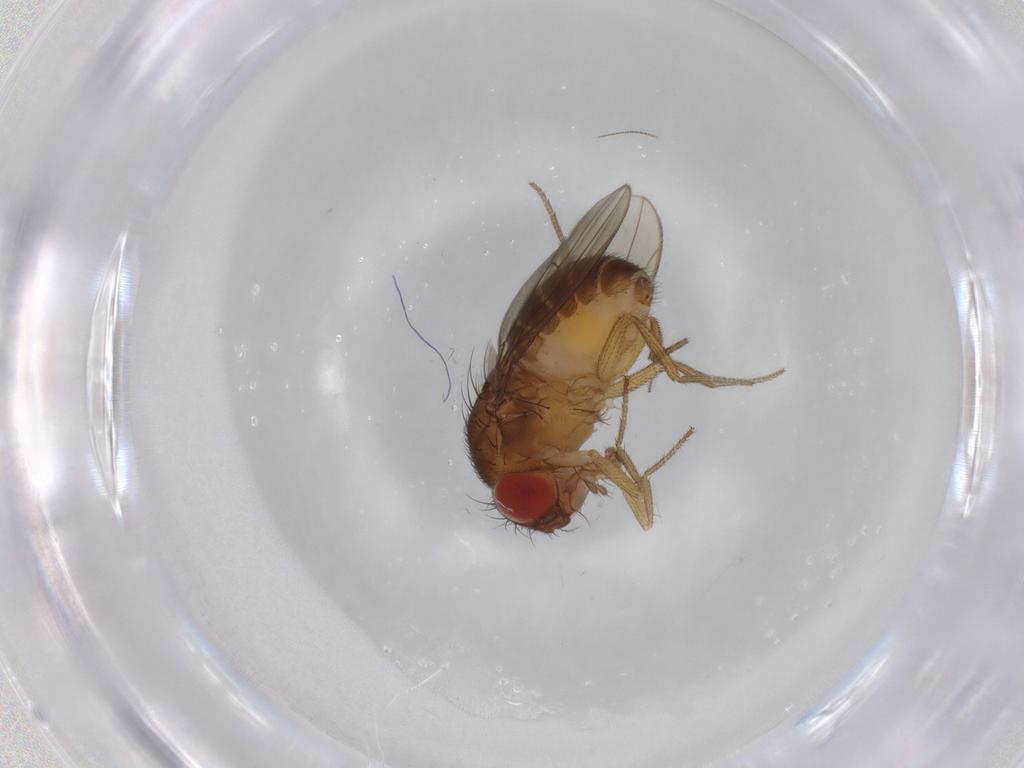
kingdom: Animalia
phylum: Arthropoda
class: Insecta
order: Diptera
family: Drosophilidae
